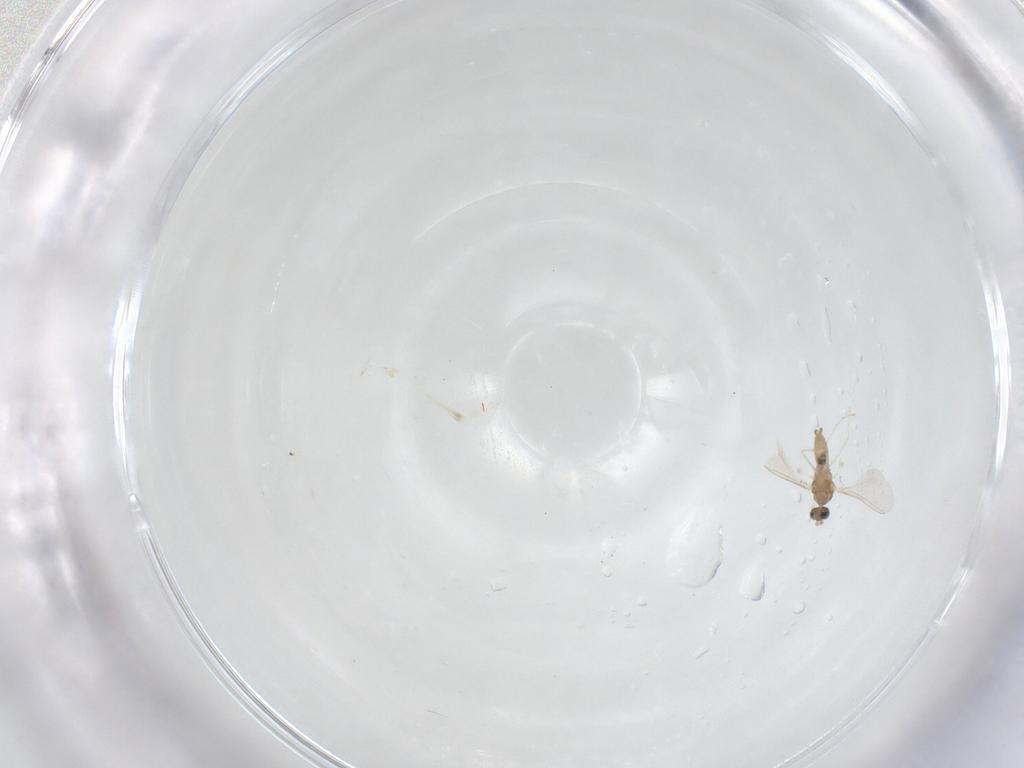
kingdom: Animalia
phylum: Arthropoda
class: Insecta
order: Diptera
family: Cecidomyiidae
